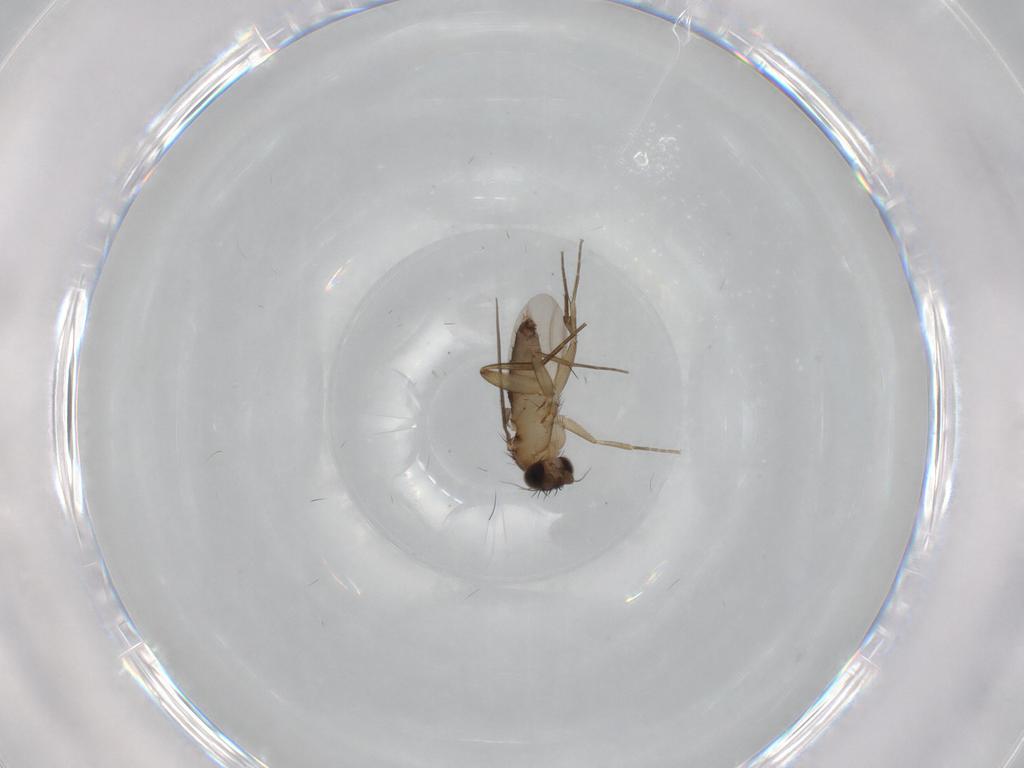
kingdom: Animalia
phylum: Arthropoda
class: Insecta
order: Diptera
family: Phoridae
